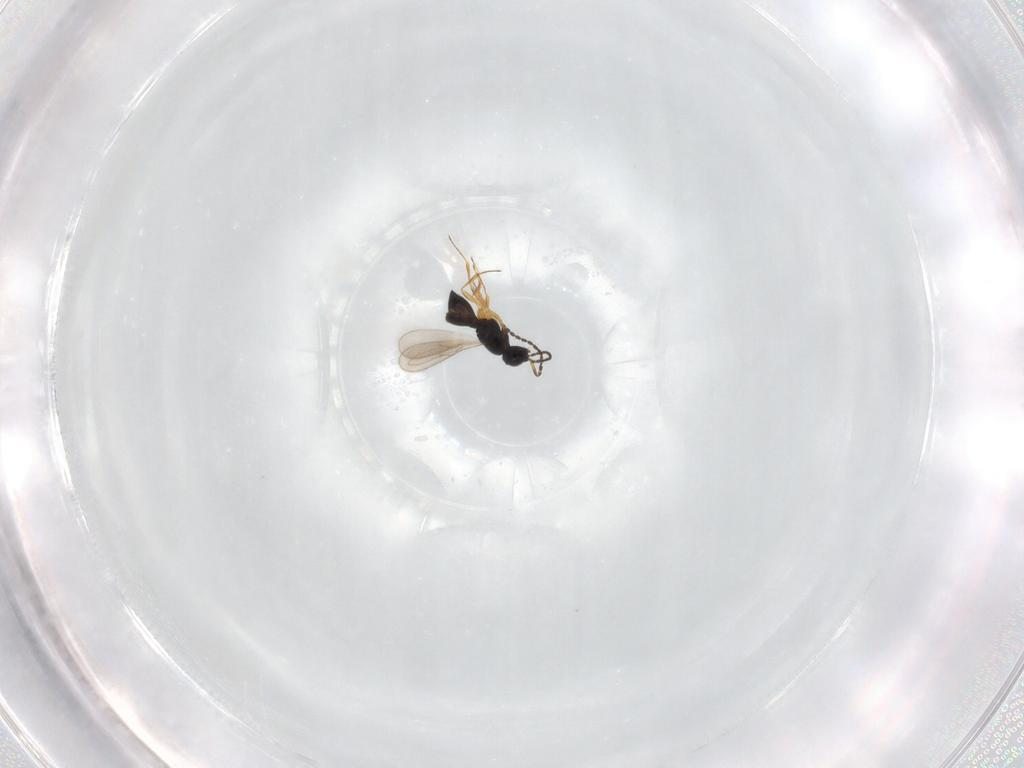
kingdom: Animalia
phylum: Arthropoda
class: Insecta
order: Hymenoptera
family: Scelionidae
